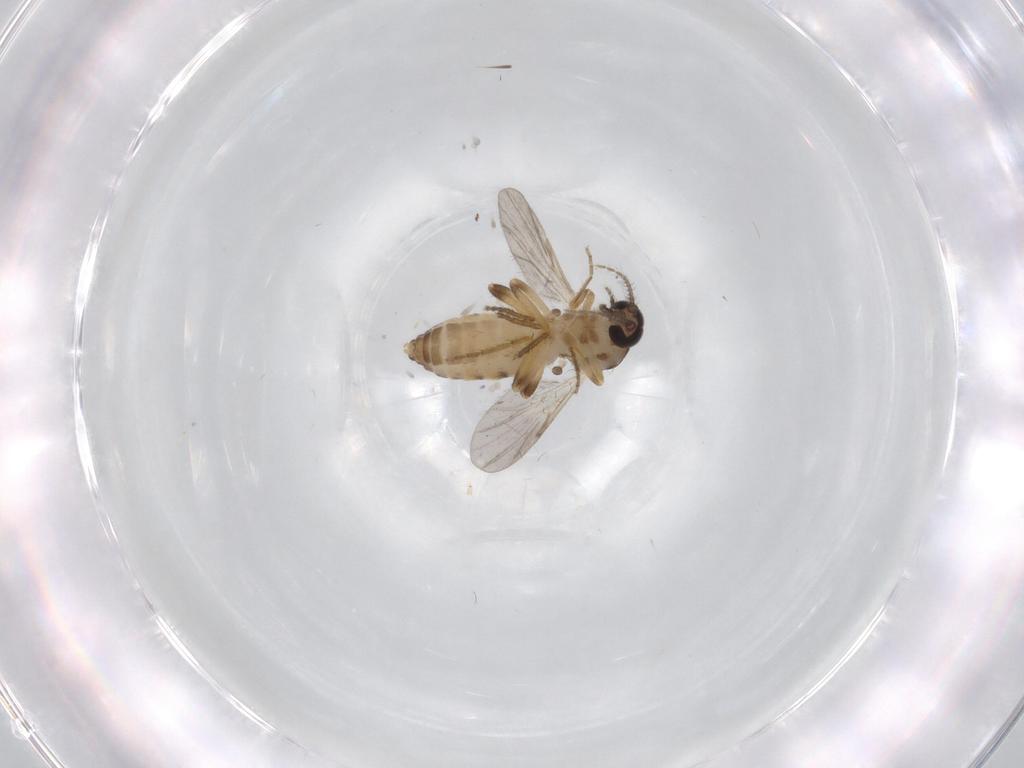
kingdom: Animalia
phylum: Arthropoda
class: Insecta
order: Diptera
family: Ceratopogonidae
